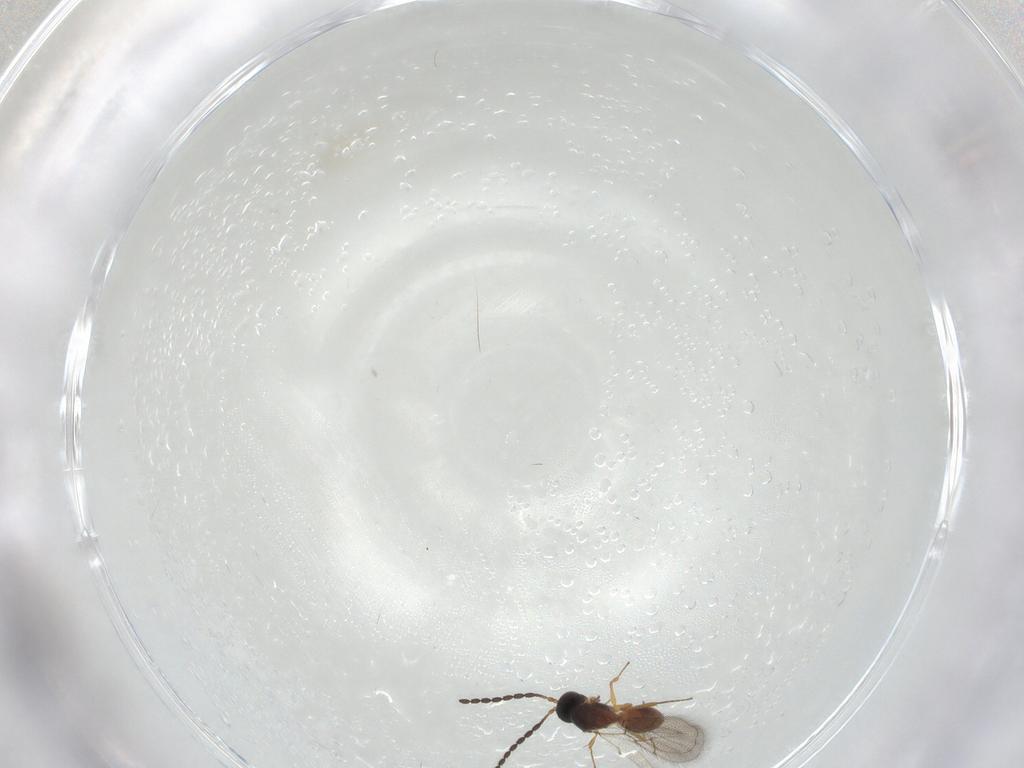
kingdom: Animalia
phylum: Arthropoda
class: Insecta
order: Hymenoptera
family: Figitidae
